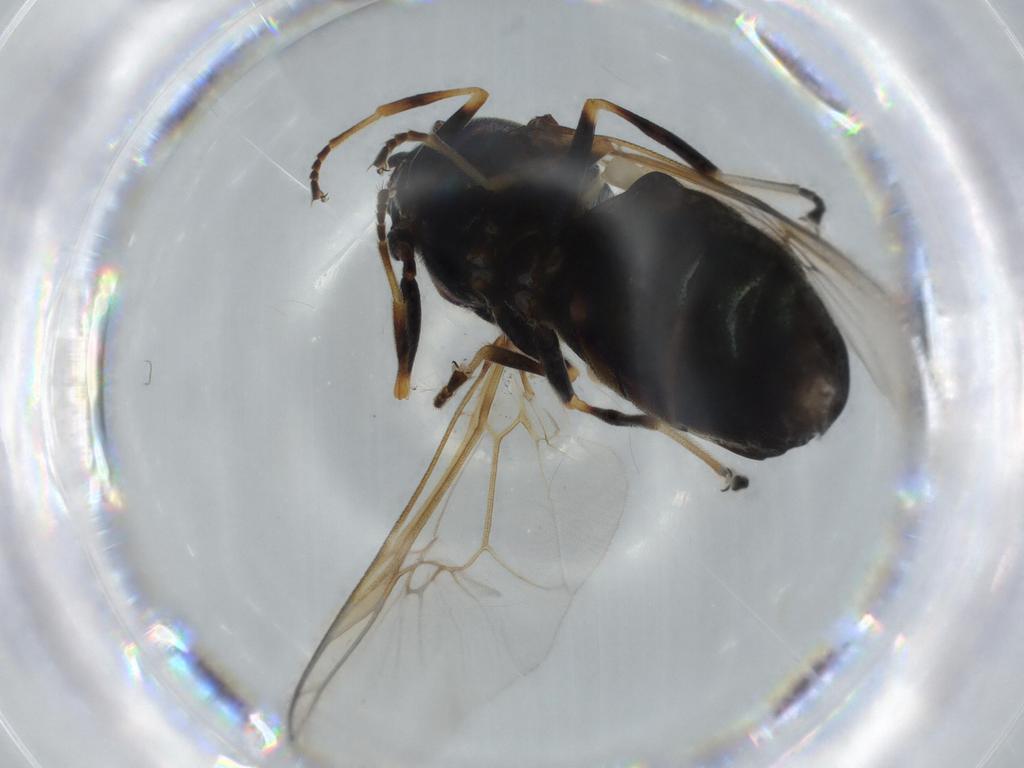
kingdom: Animalia
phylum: Arthropoda
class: Insecta
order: Diptera
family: Stratiomyidae
